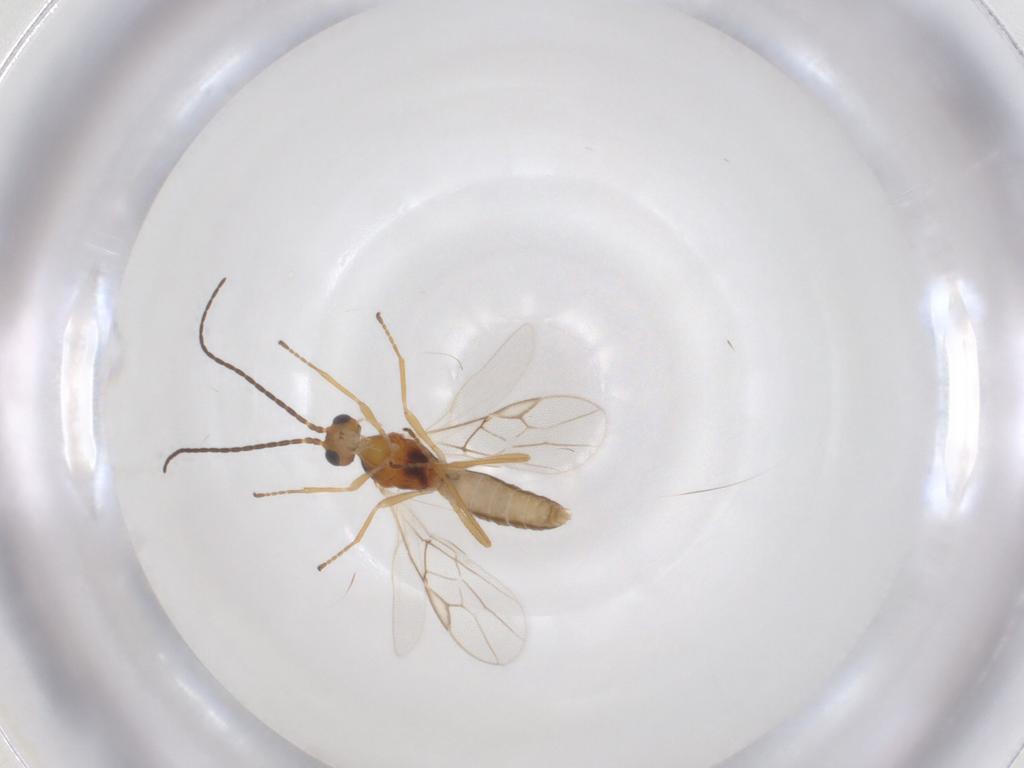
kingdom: Animalia
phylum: Arthropoda
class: Insecta
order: Hymenoptera
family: Braconidae
